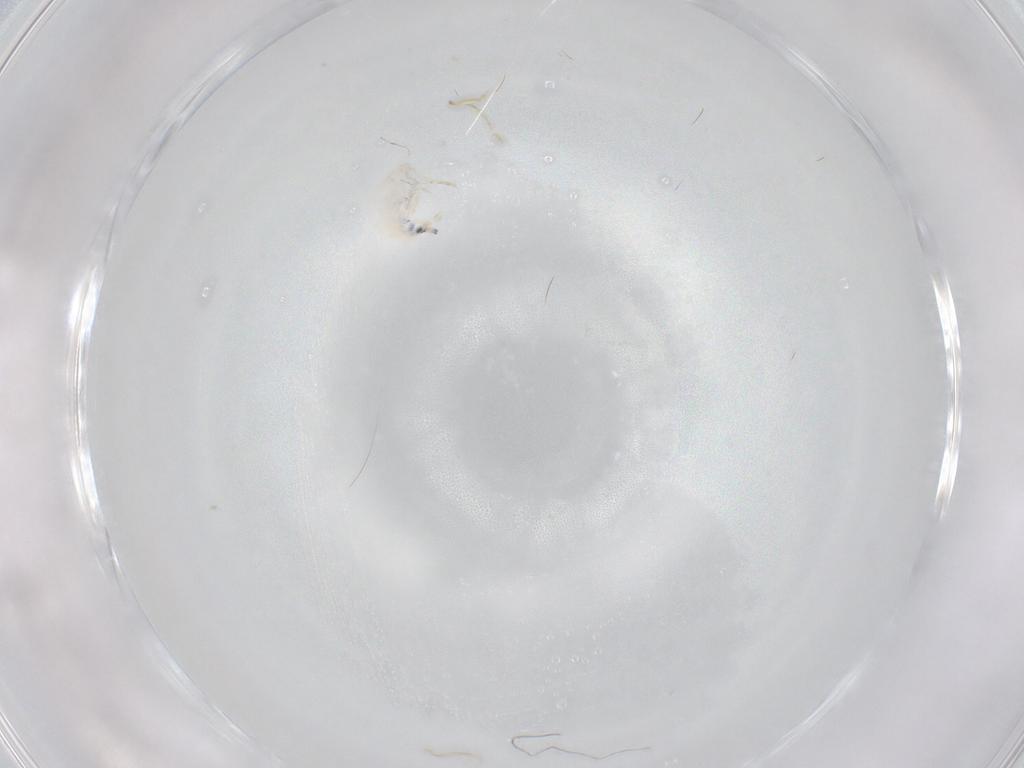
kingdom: Animalia
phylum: Arthropoda
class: Collembola
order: Entomobryomorpha
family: Entomobryidae
